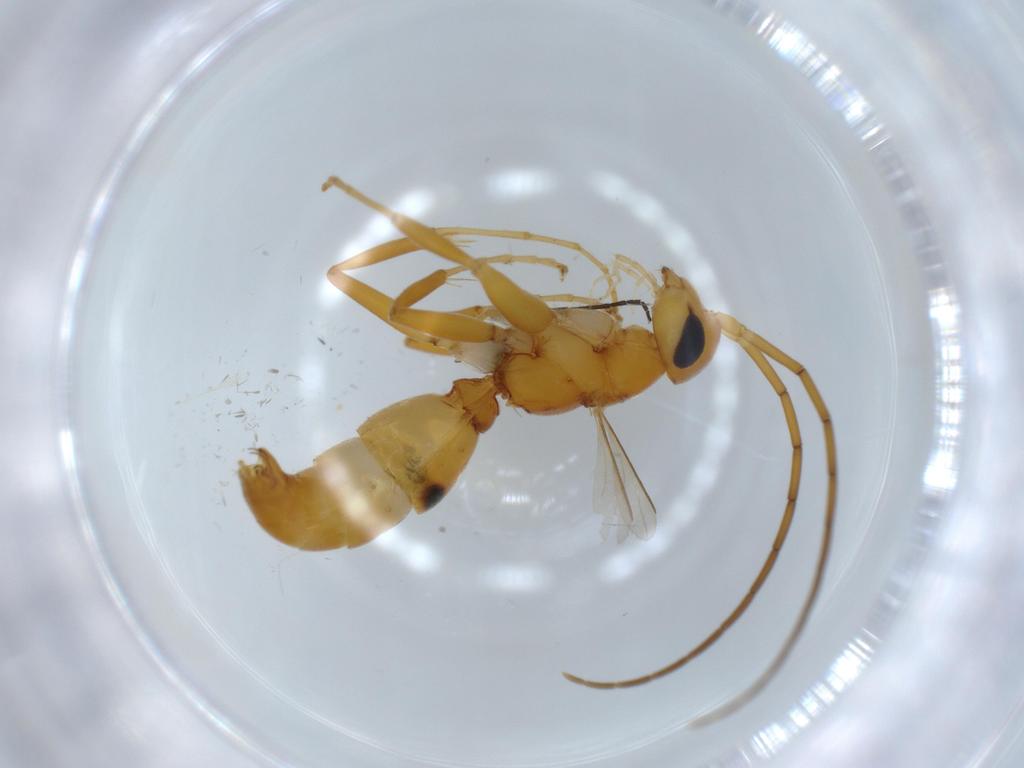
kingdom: Animalia
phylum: Arthropoda
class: Insecta
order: Hymenoptera
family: Rhopalosomatidae
